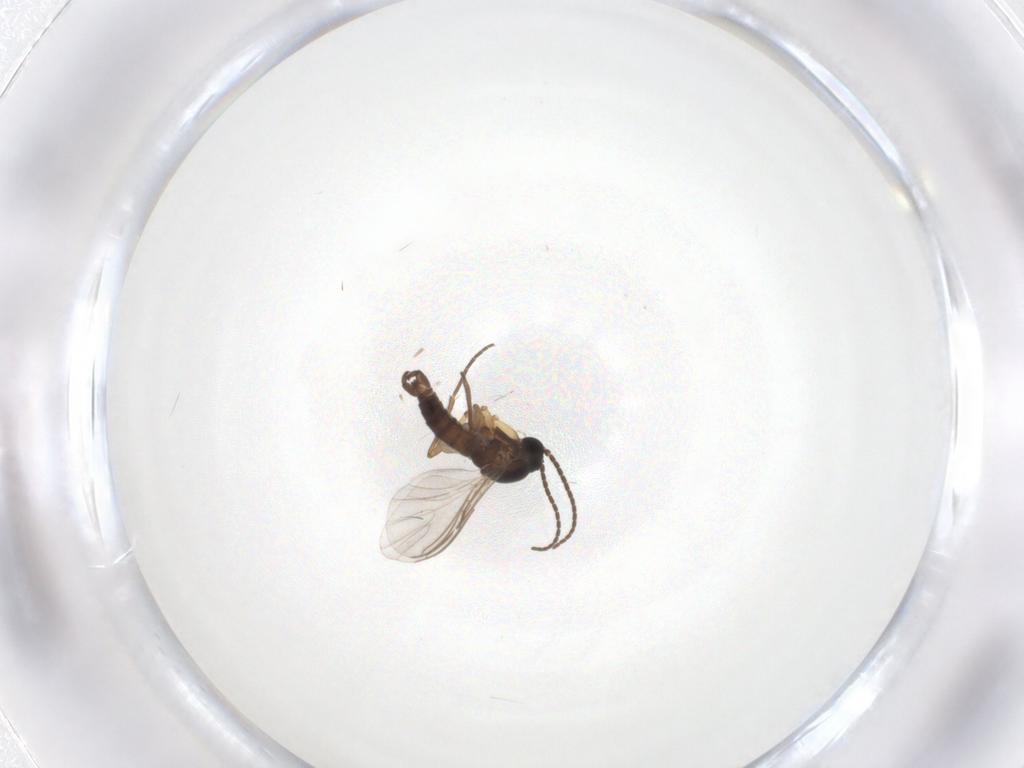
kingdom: Animalia
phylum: Arthropoda
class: Insecta
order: Diptera
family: Sciaridae
